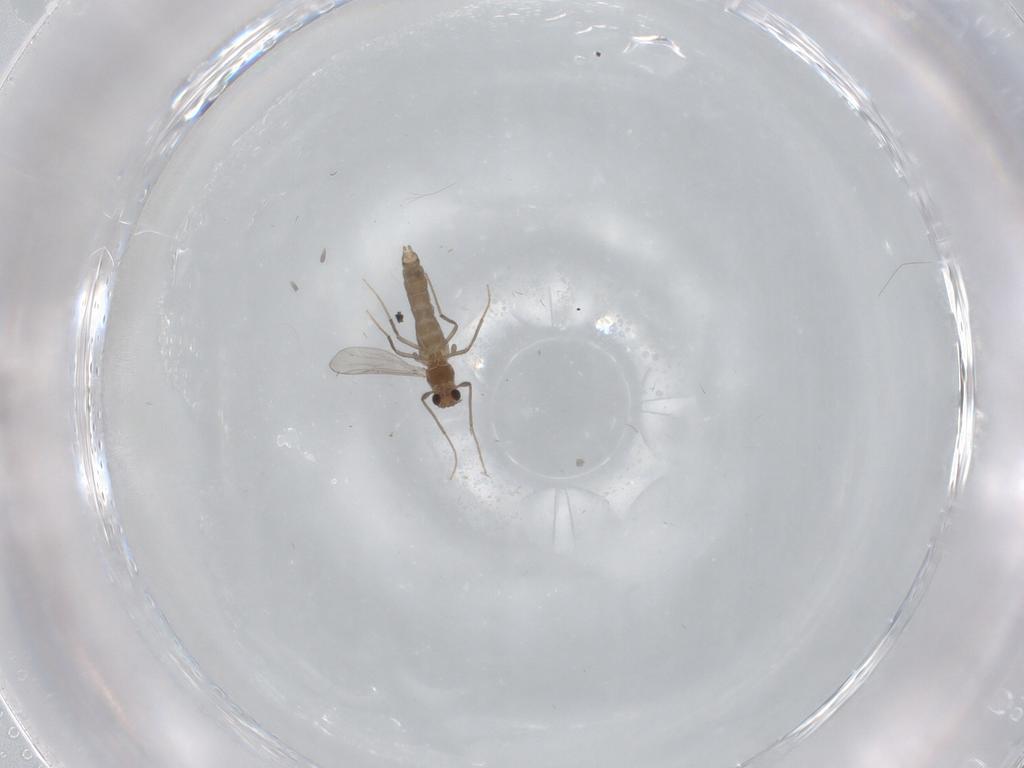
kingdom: Animalia
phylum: Arthropoda
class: Insecta
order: Diptera
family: Chironomidae
